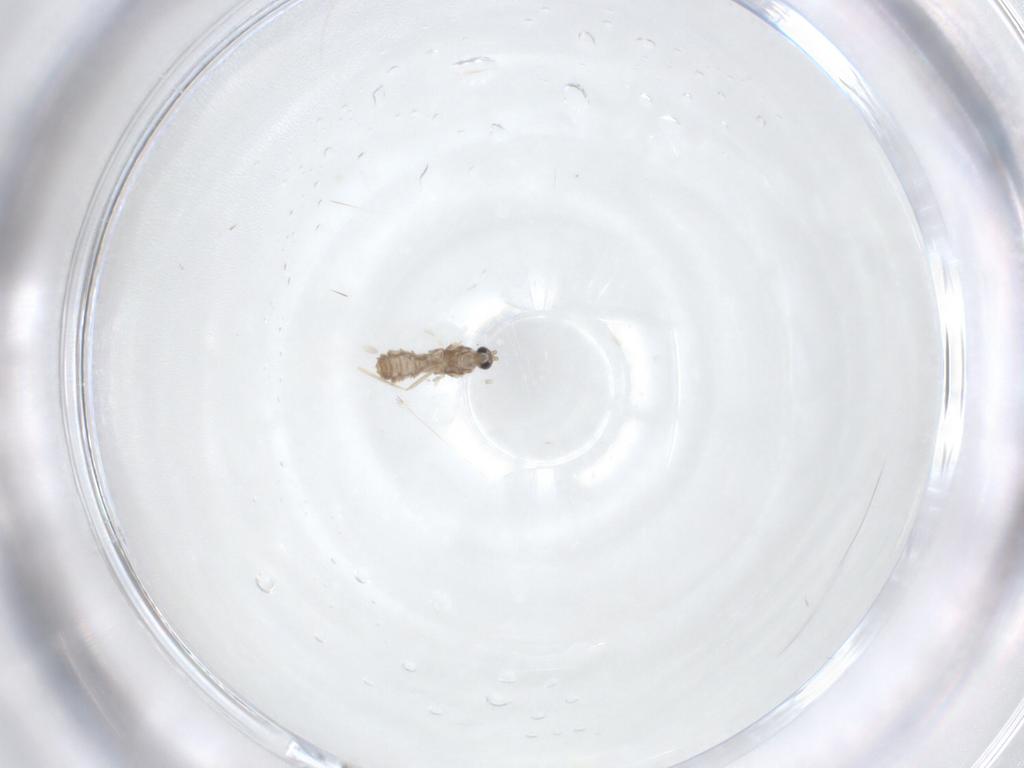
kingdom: Animalia
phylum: Arthropoda
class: Insecta
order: Diptera
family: Cecidomyiidae
